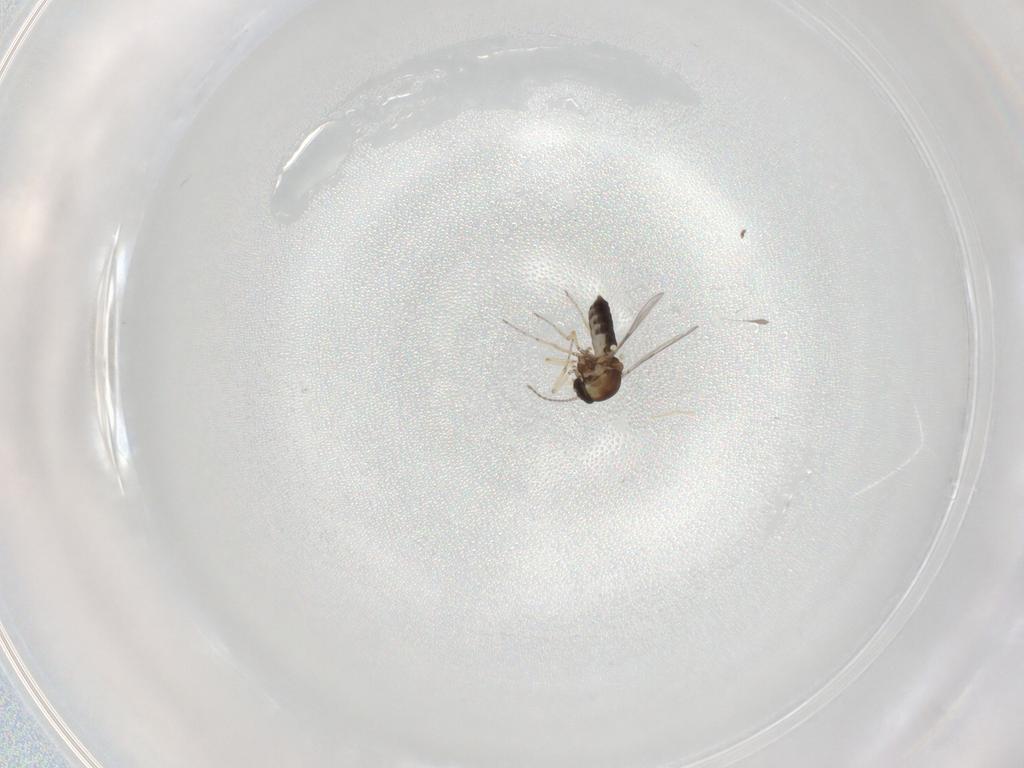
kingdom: Animalia
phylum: Arthropoda
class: Insecta
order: Diptera
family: Ceratopogonidae
